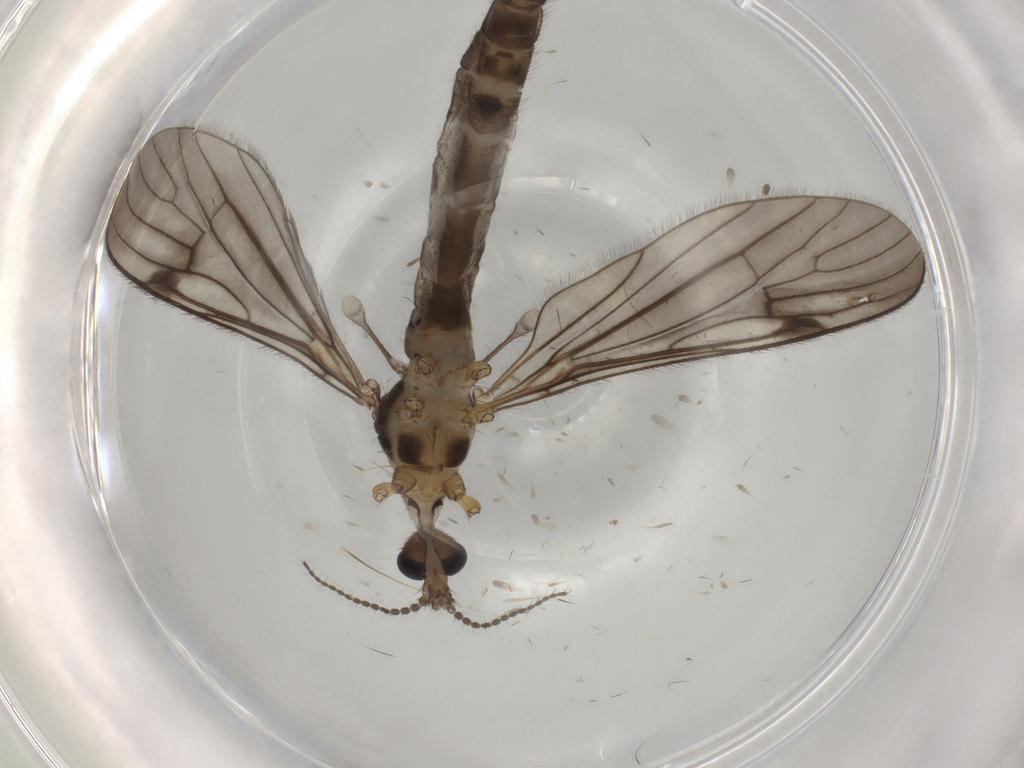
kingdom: Animalia
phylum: Arthropoda
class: Insecta
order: Diptera
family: Limoniidae
